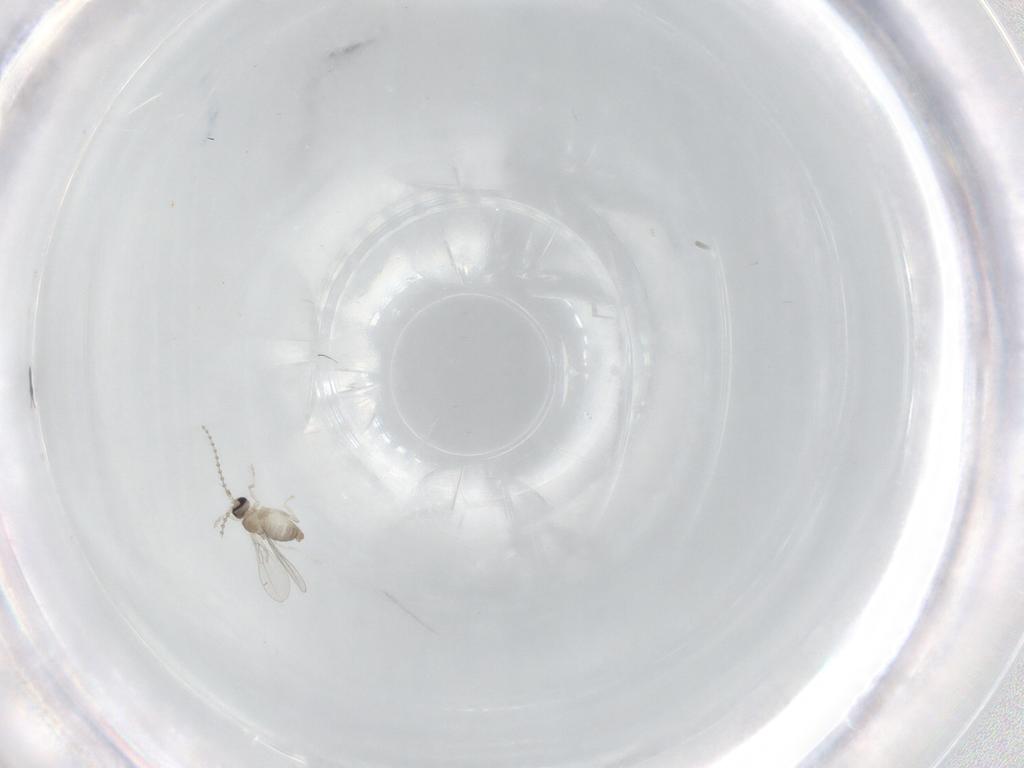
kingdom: Animalia
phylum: Arthropoda
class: Insecta
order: Diptera
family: Cecidomyiidae
